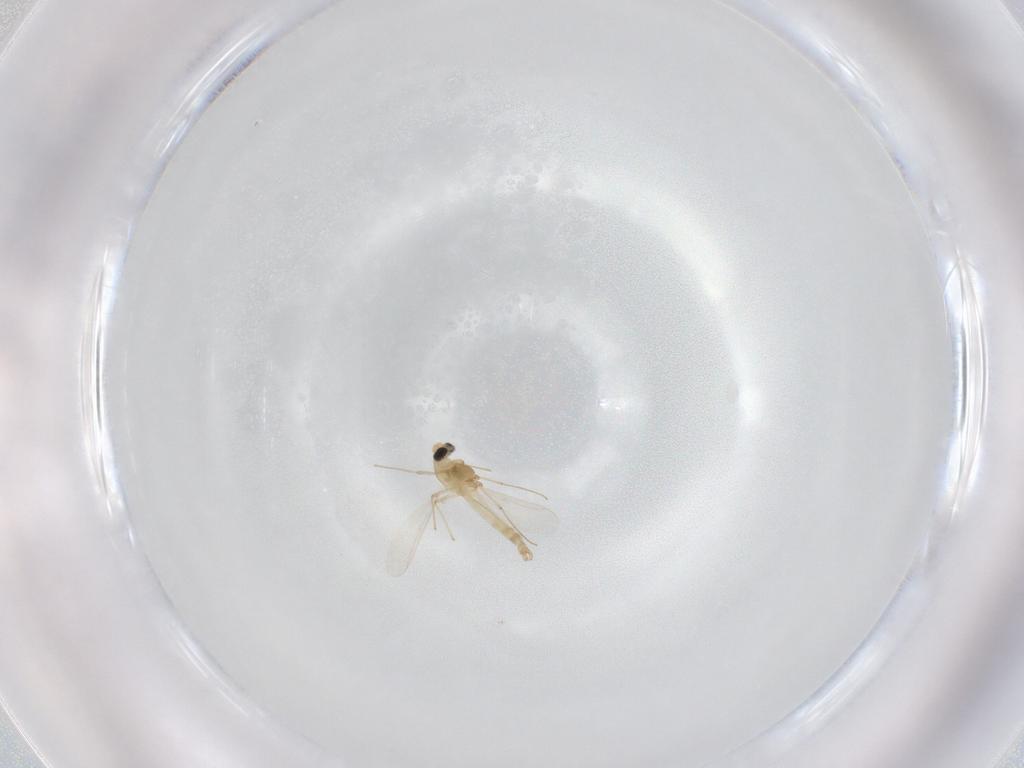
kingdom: Animalia
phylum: Arthropoda
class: Insecta
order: Diptera
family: Chironomidae
